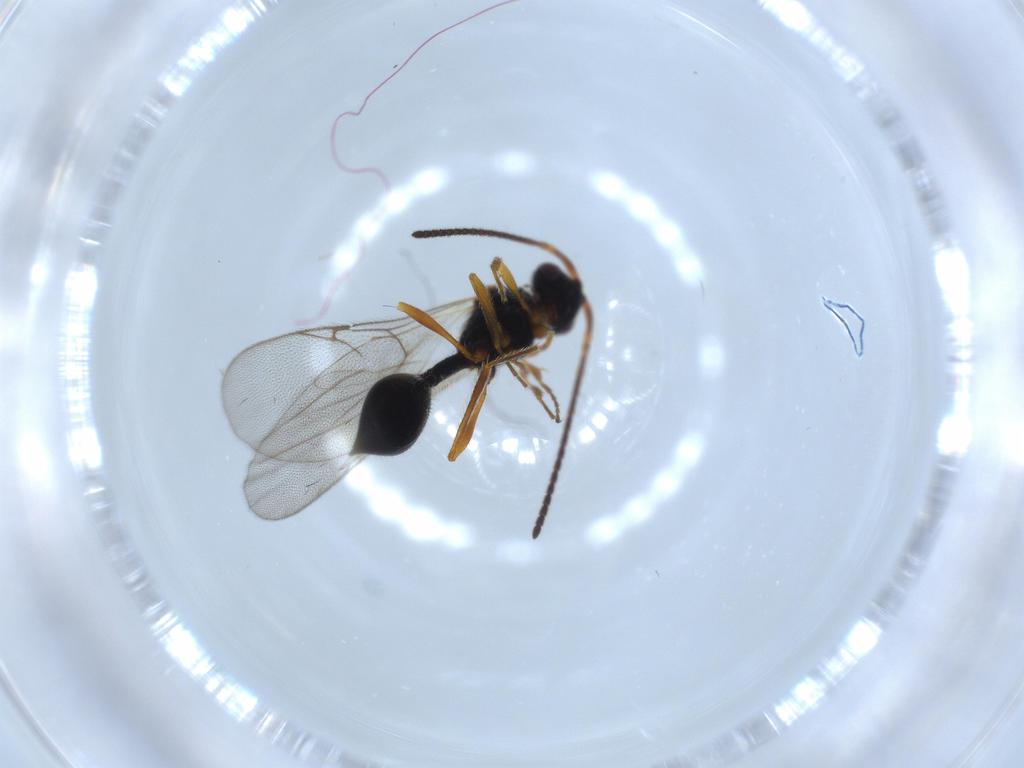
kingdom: Animalia
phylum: Arthropoda
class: Insecta
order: Hymenoptera
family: Diapriidae
